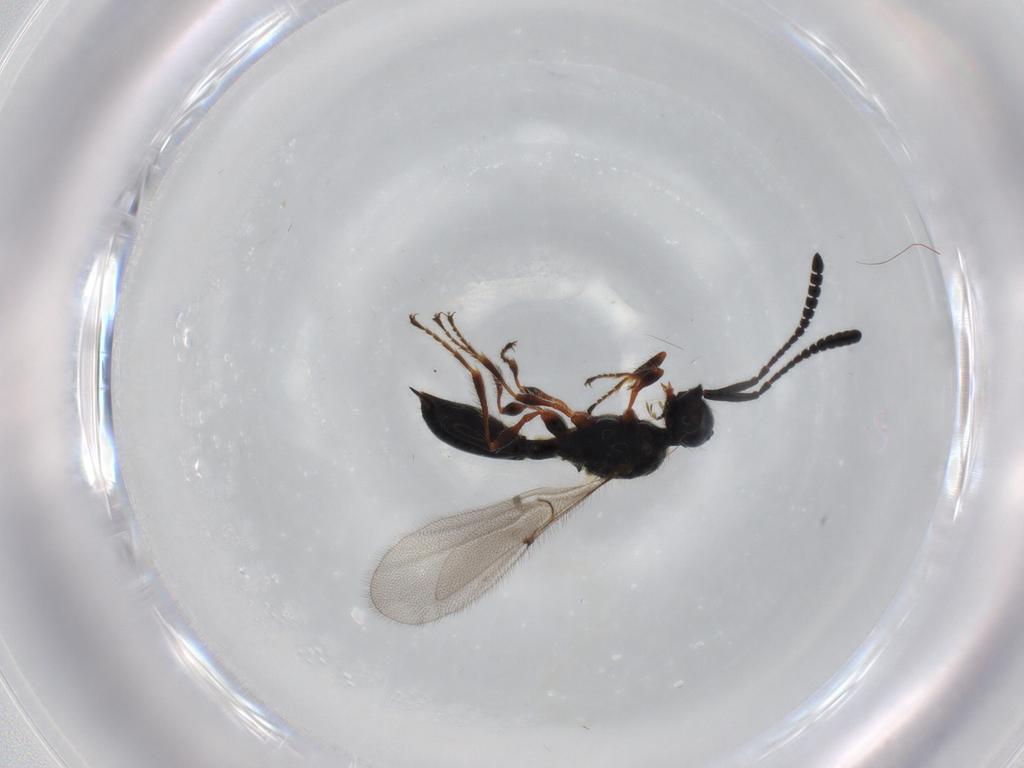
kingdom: Animalia
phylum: Arthropoda
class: Insecta
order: Hymenoptera
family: Diapriidae
